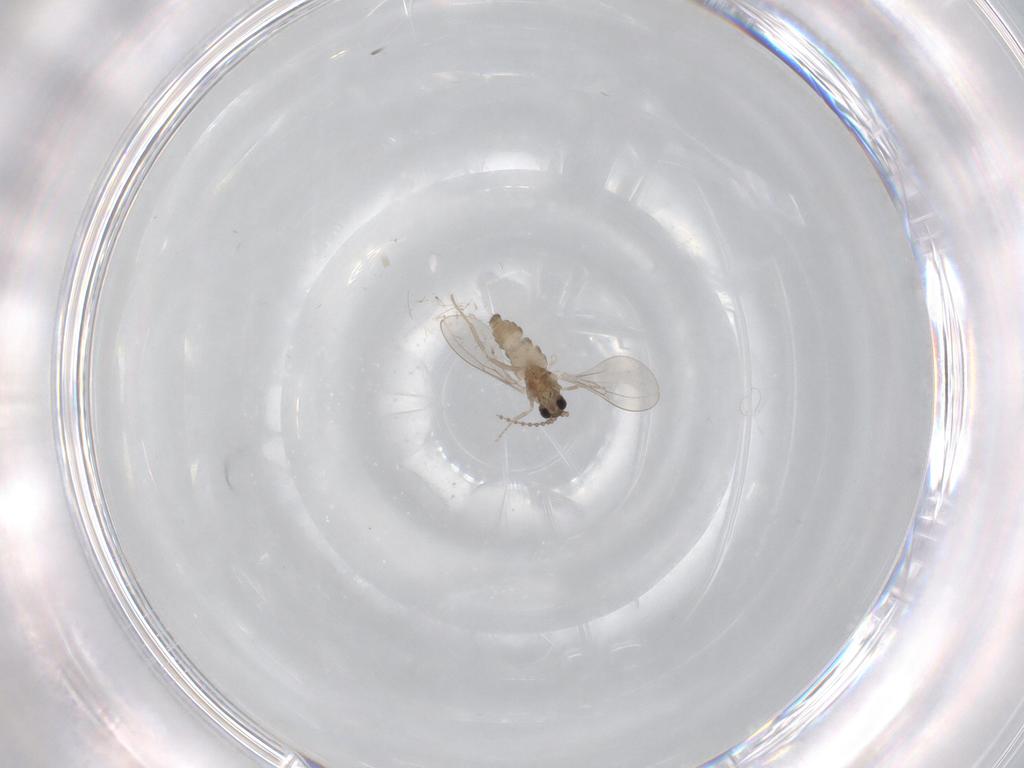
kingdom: Animalia
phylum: Arthropoda
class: Insecta
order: Diptera
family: Cecidomyiidae
